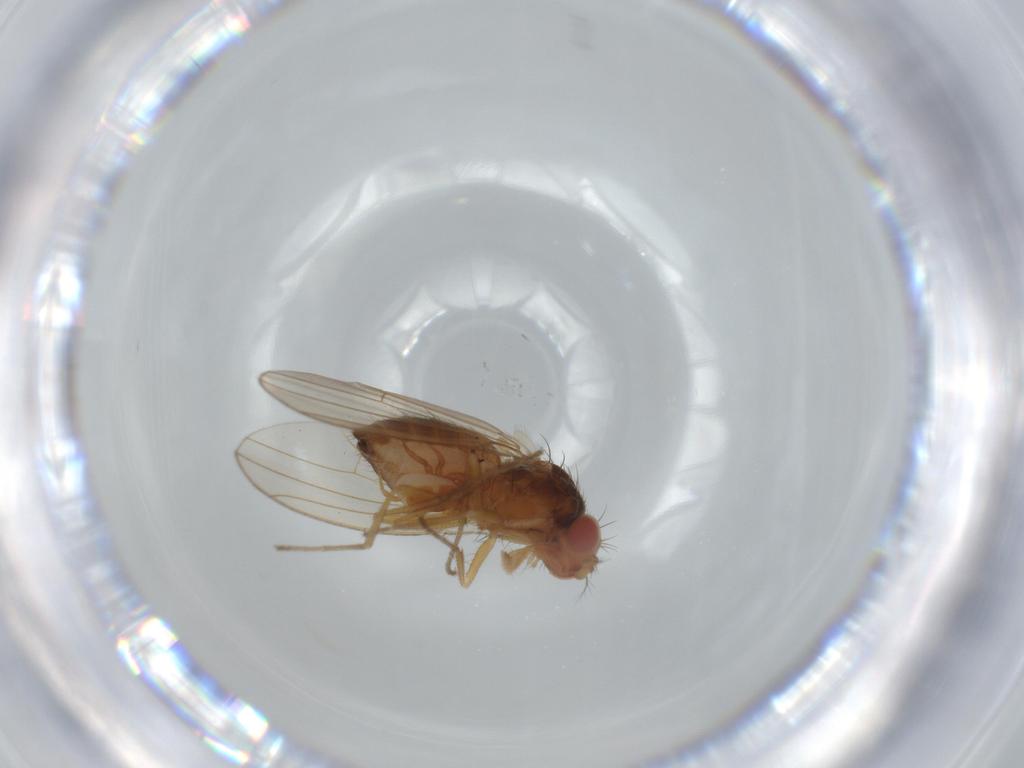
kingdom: Animalia
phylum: Arthropoda
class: Insecta
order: Diptera
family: Drosophilidae
